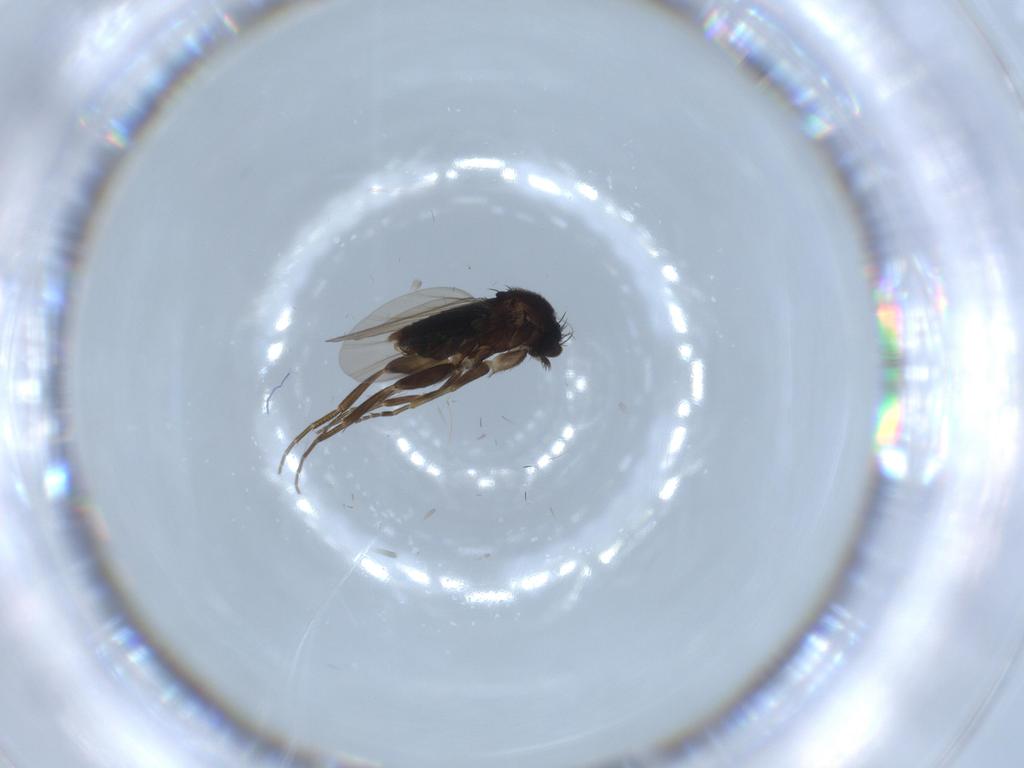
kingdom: Animalia
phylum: Arthropoda
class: Insecta
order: Diptera
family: Phoridae
